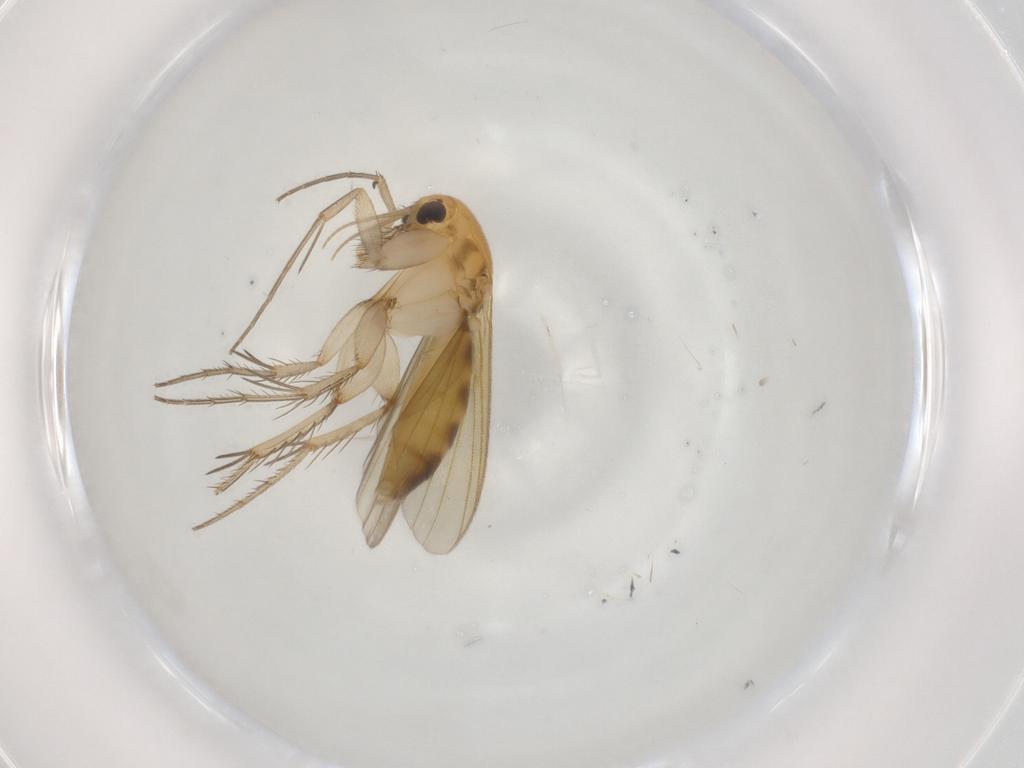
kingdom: Animalia
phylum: Arthropoda
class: Insecta
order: Diptera
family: Mycetophilidae
